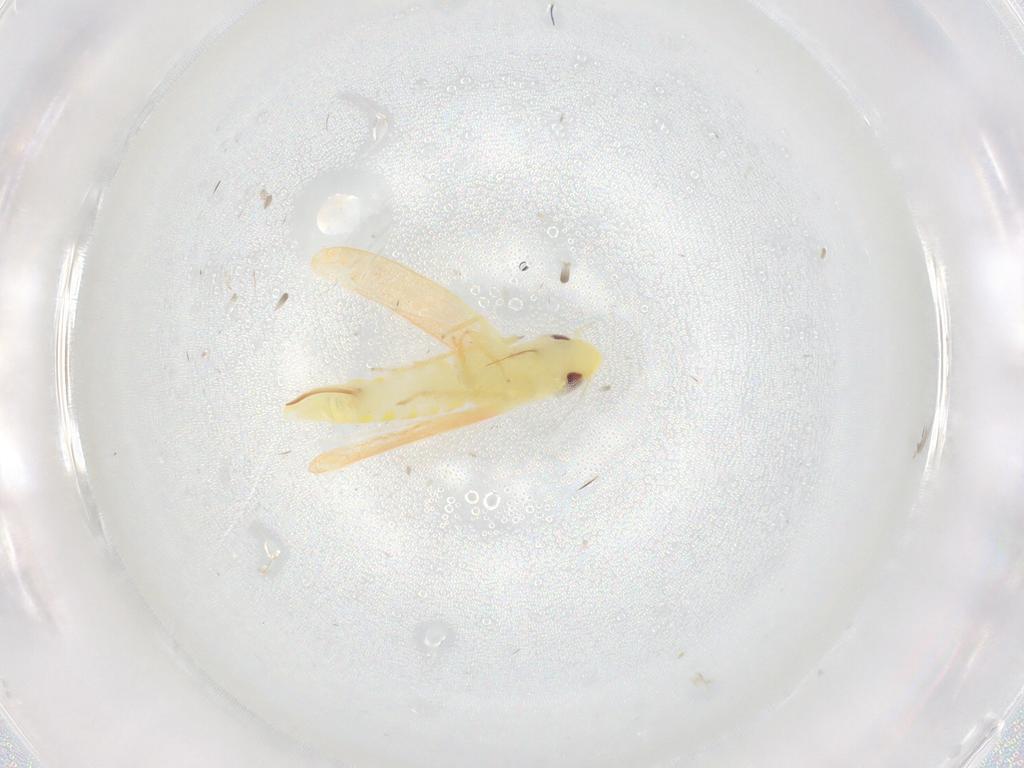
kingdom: Animalia
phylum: Arthropoda
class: Insecta
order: Hemiptera
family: Cicadellidae
